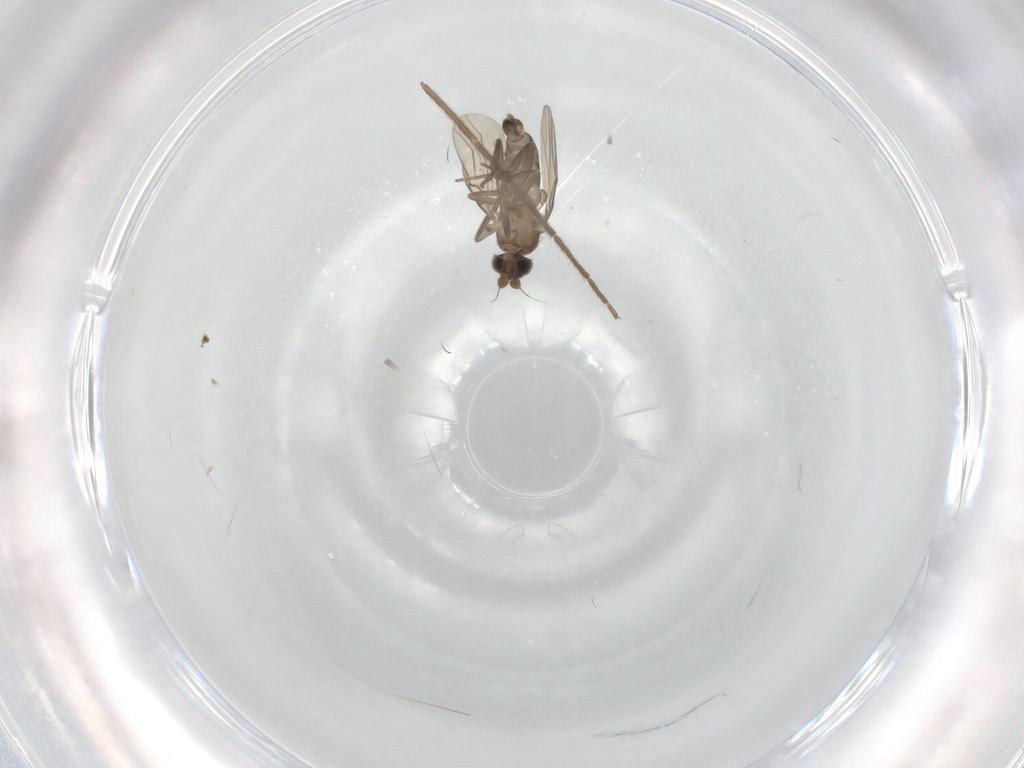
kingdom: Animalia
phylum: Arthropoda
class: Insecta
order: Diptera
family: Phoridae
